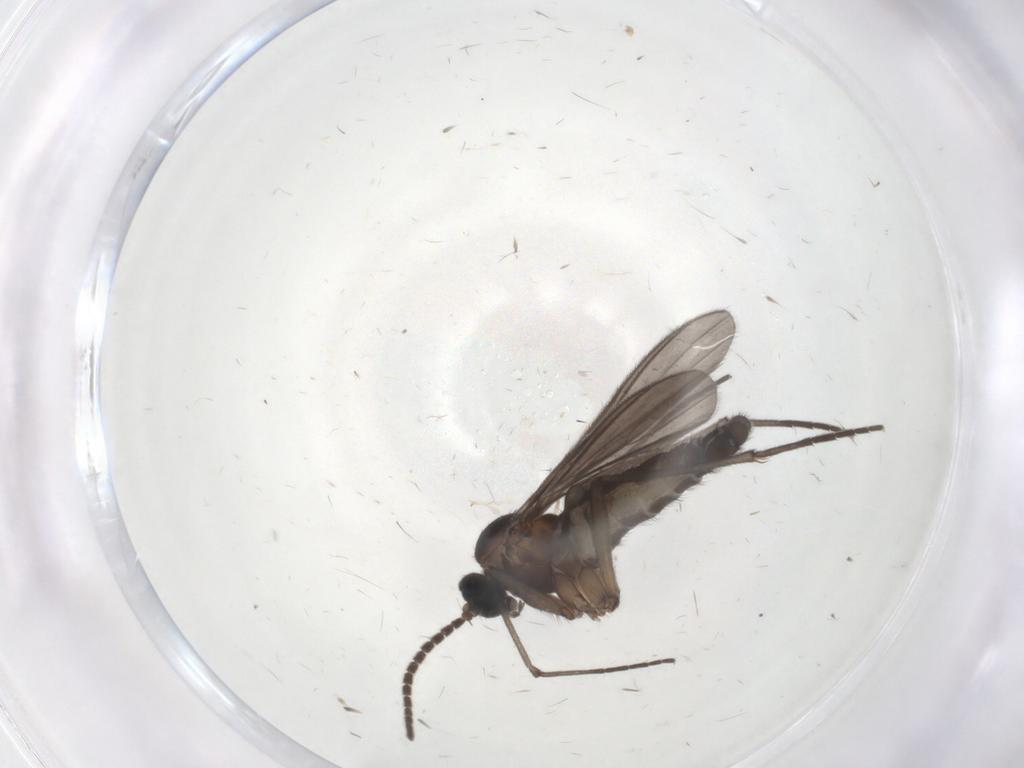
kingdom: Animalia
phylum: Arthropoda
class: Insecta
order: Diptera
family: Sciaridae
